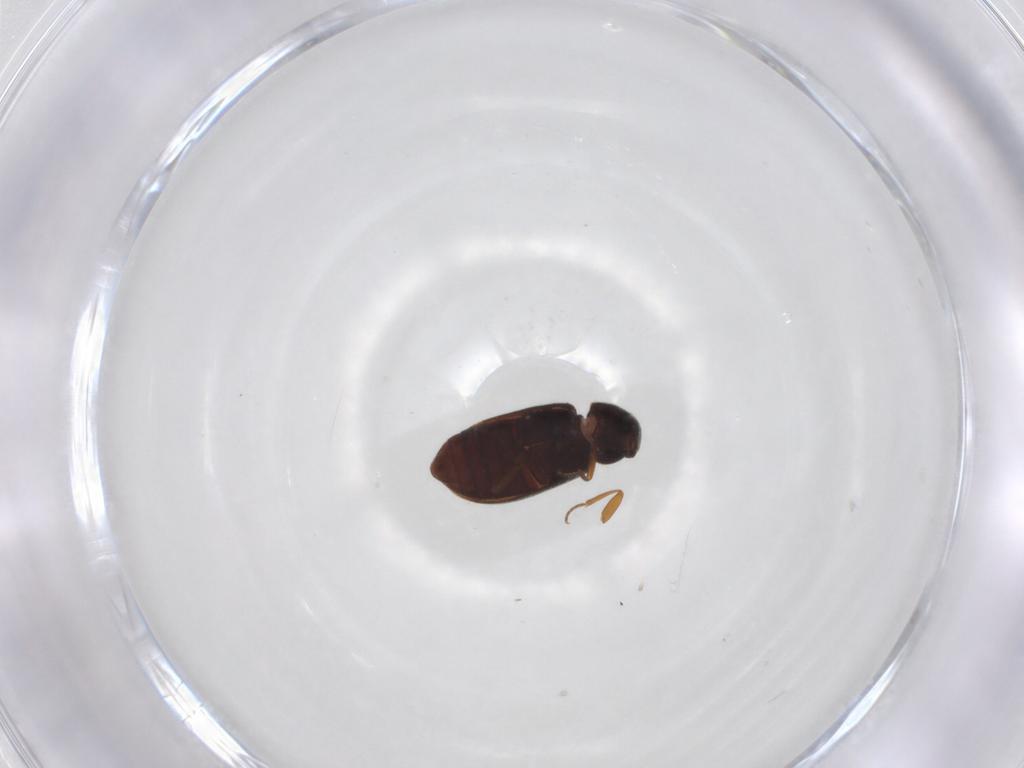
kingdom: Animalia
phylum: Arthropoda
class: Insecta
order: Coleoptera
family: Rhadalidae
